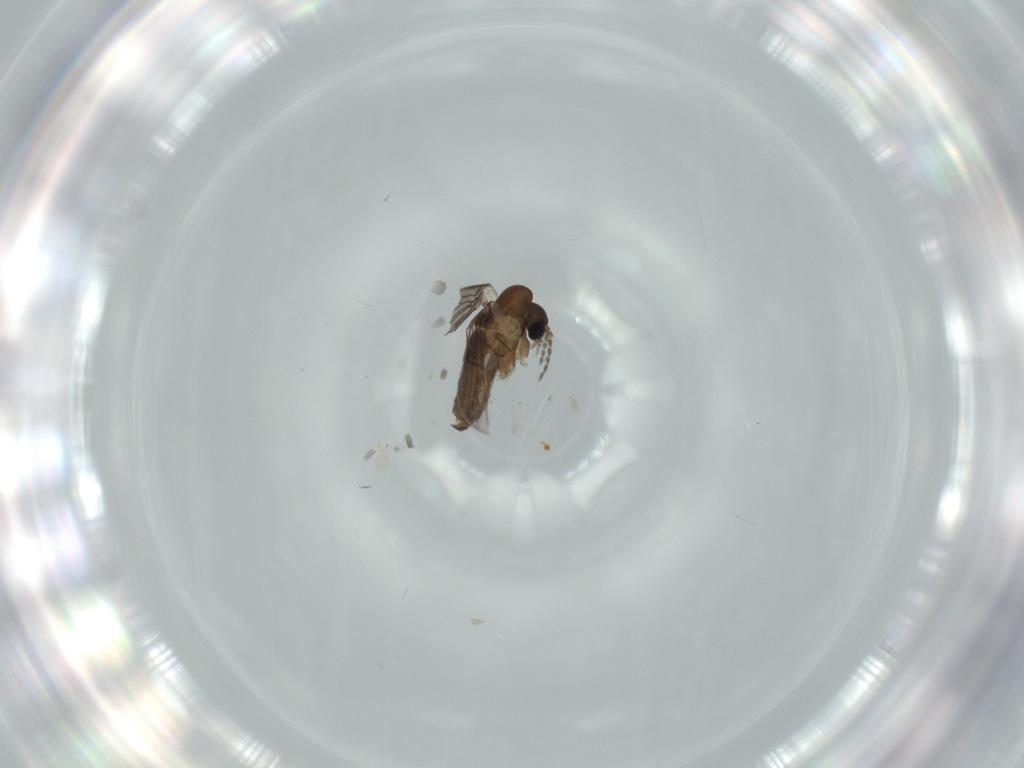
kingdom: Animalia
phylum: Arthropoda
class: Insecta
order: Diptera
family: Psychodidae
